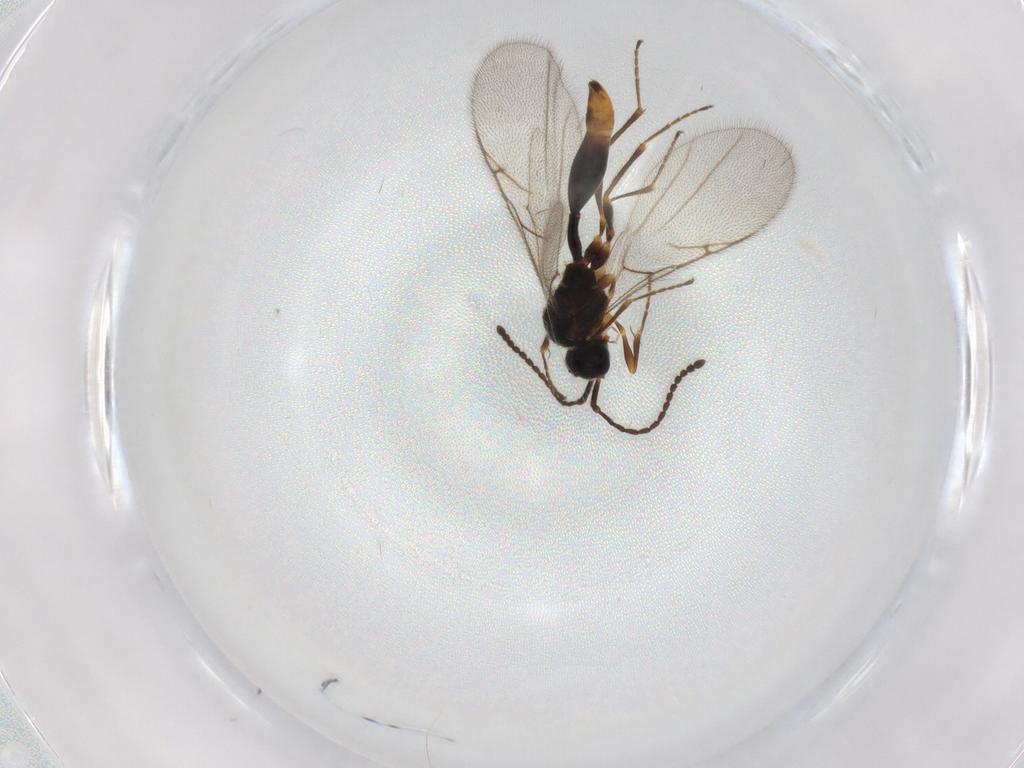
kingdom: Animalia
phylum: Arthropoda
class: Insecta
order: Hymenoptera
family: Diapriidae
